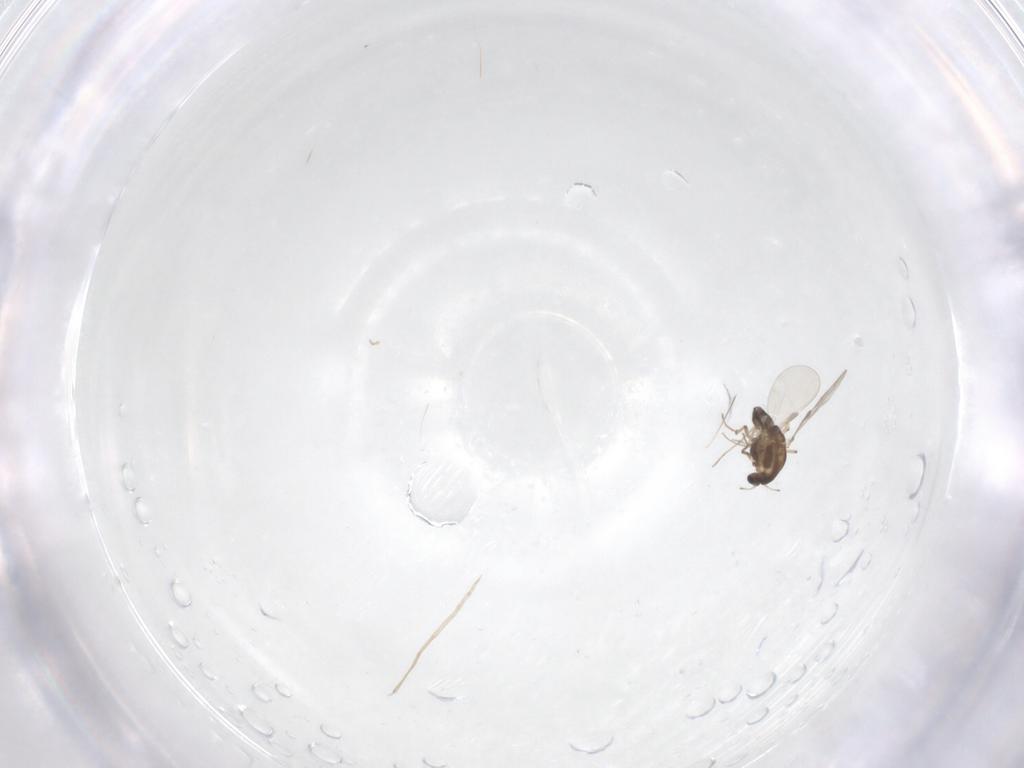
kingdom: Animalia
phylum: Arthropoda
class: Insecta
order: Diptera
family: Chironomidae
